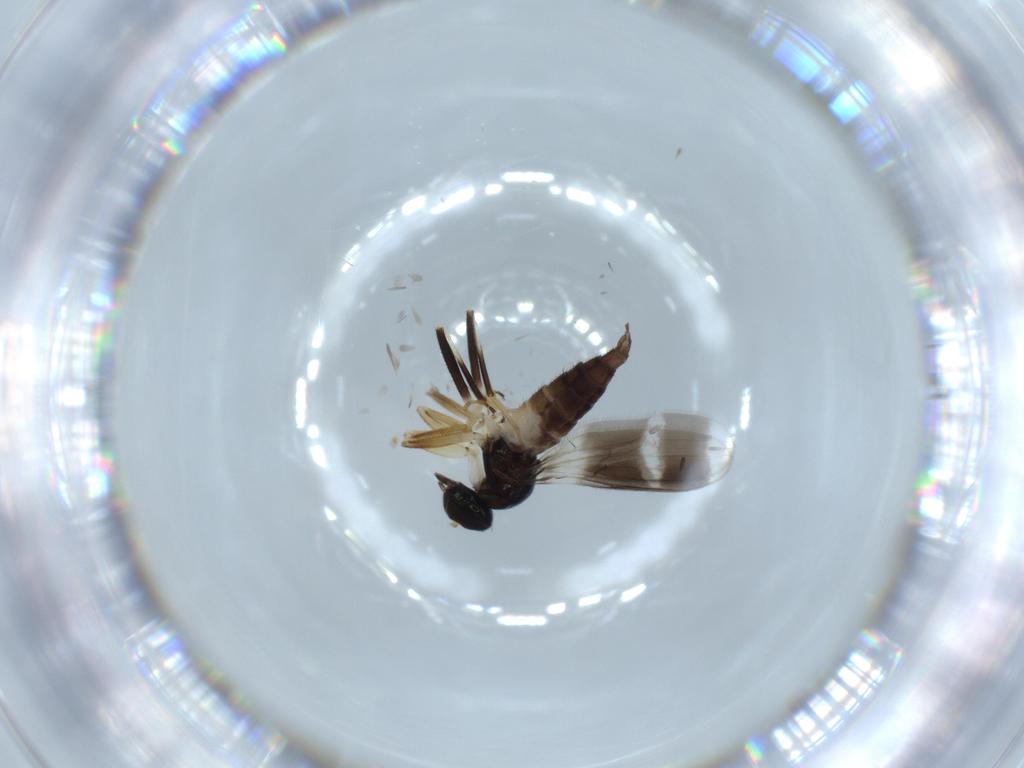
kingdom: Animalia
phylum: Arthropoda
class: Insecta
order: Diptera
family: Hybotidae
